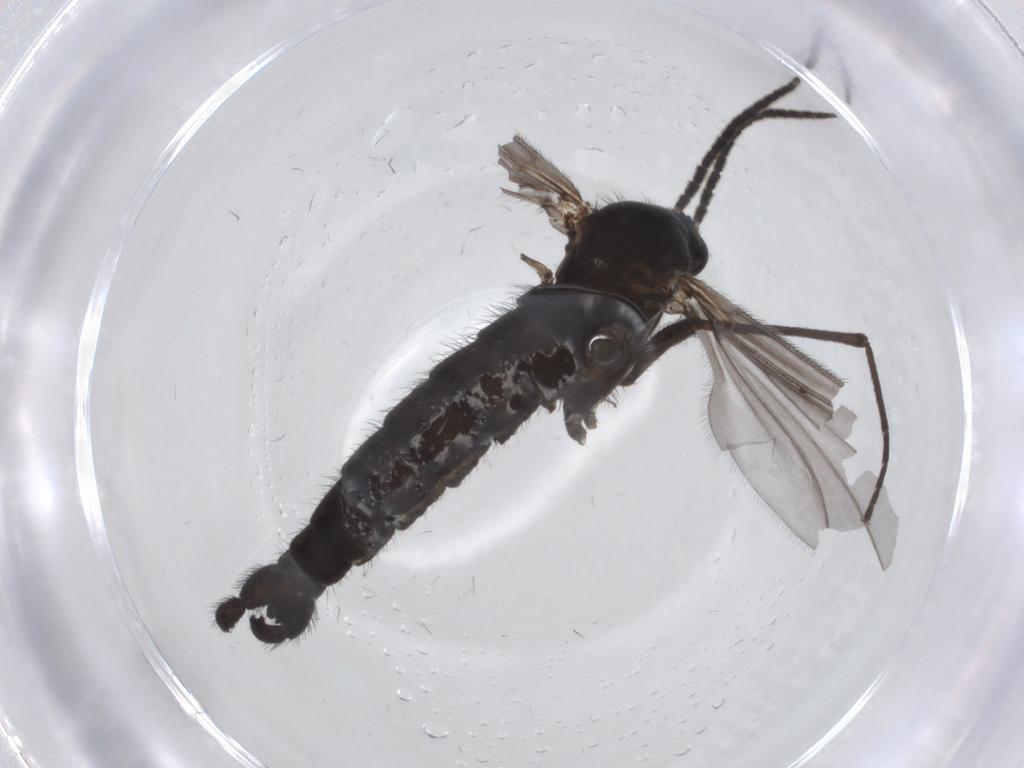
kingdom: Animalia
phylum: Arthropoda
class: Insecta
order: Diptera
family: Chironomidae
